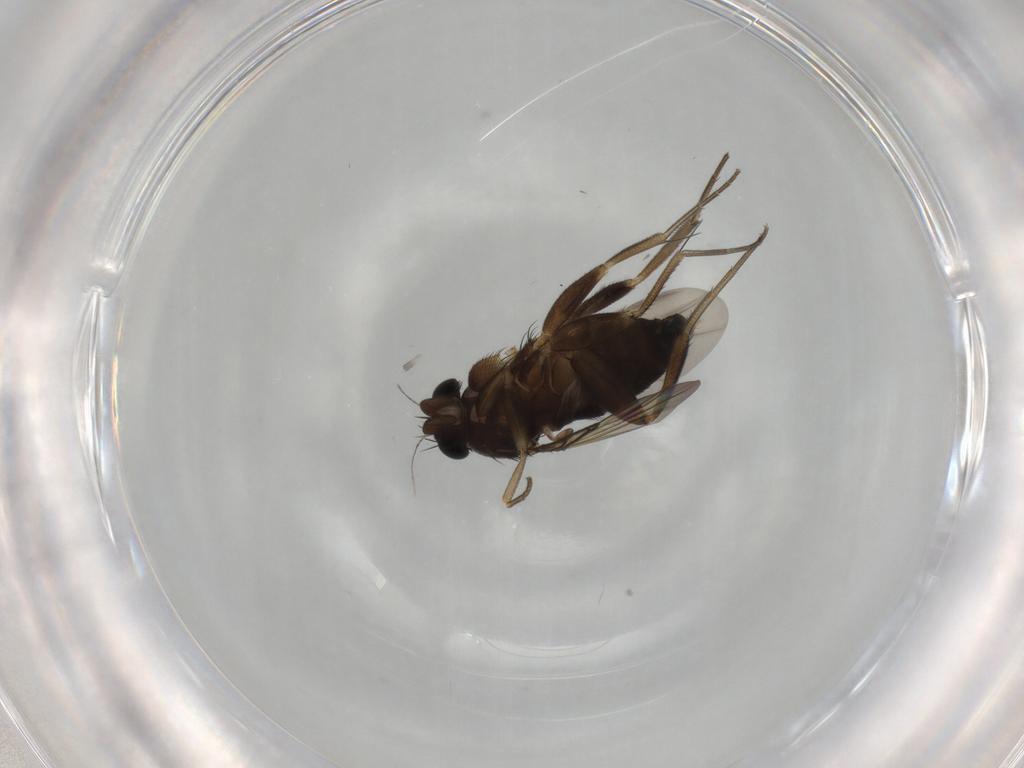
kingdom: Animalia
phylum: Arthropoda
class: Insecta
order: Diptera
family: Phoridae
